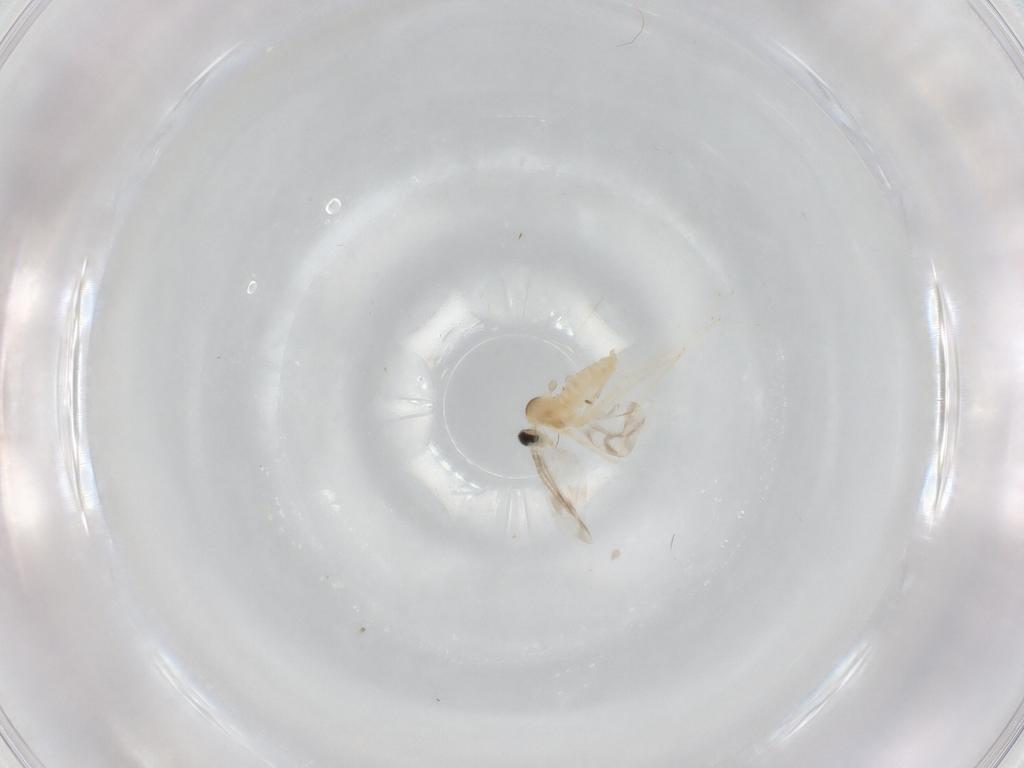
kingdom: Animalia
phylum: Arthropoda
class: Insecta
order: Diptera
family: Cecidomyiidae
